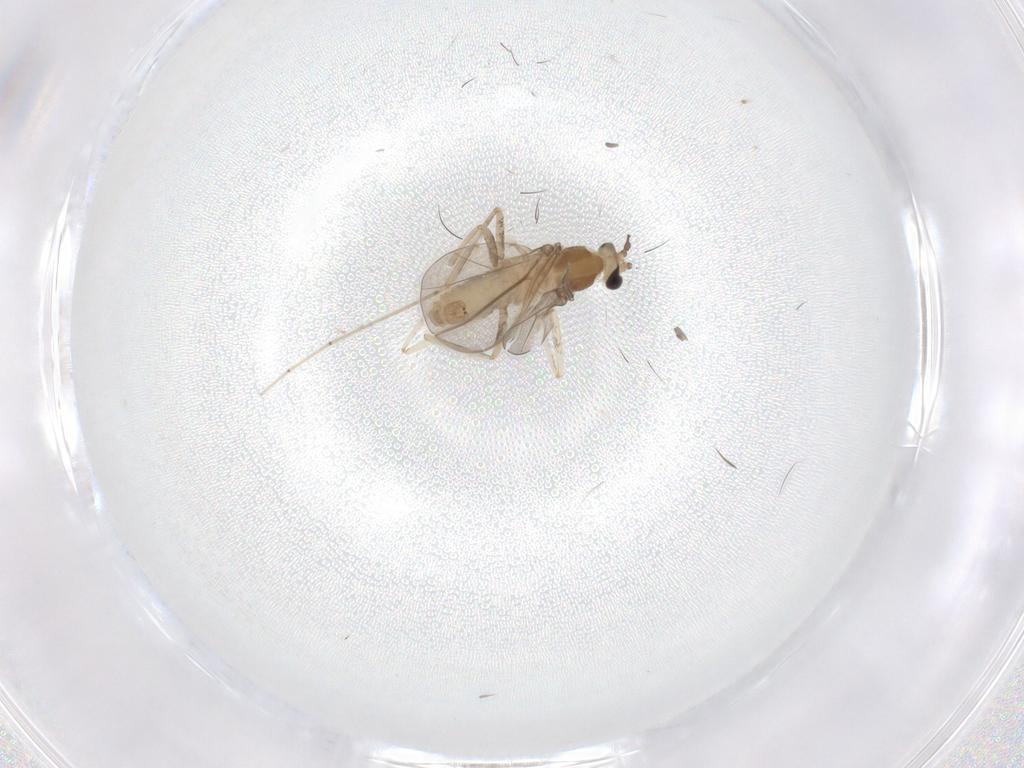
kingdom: Animalia
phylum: Arthropoda
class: Insecta
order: Diptera
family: Cecidomyiidae
